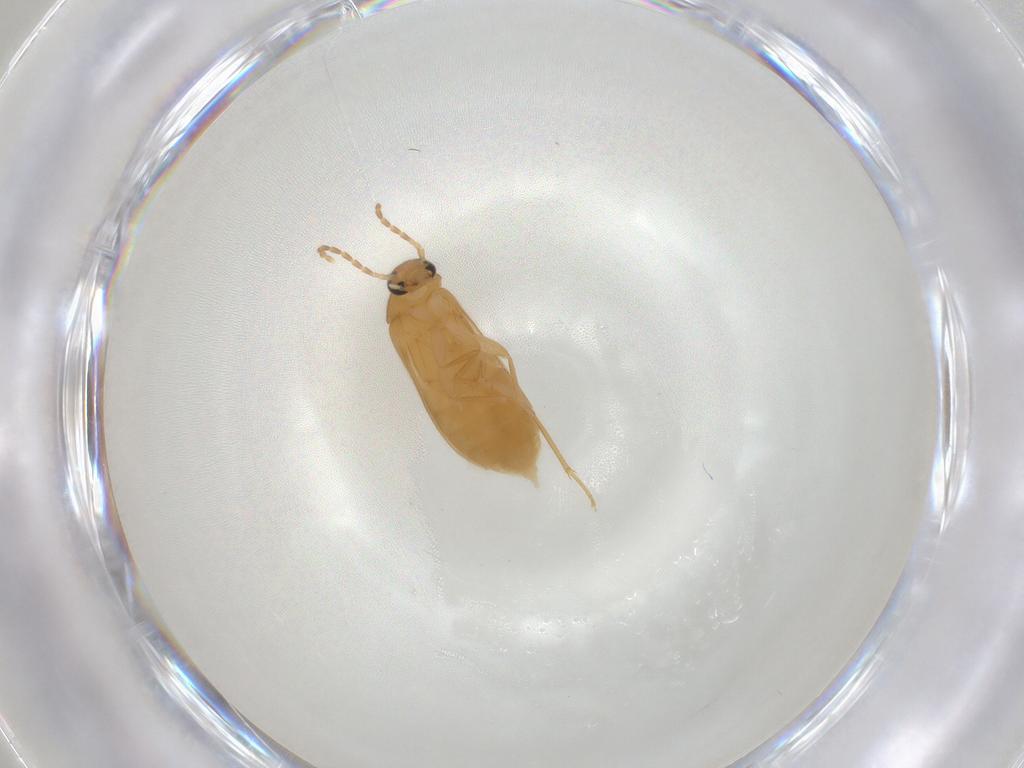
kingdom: Animalia
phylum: Arthropoda
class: Insecta
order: Coleoptera
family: Scraptiidae
